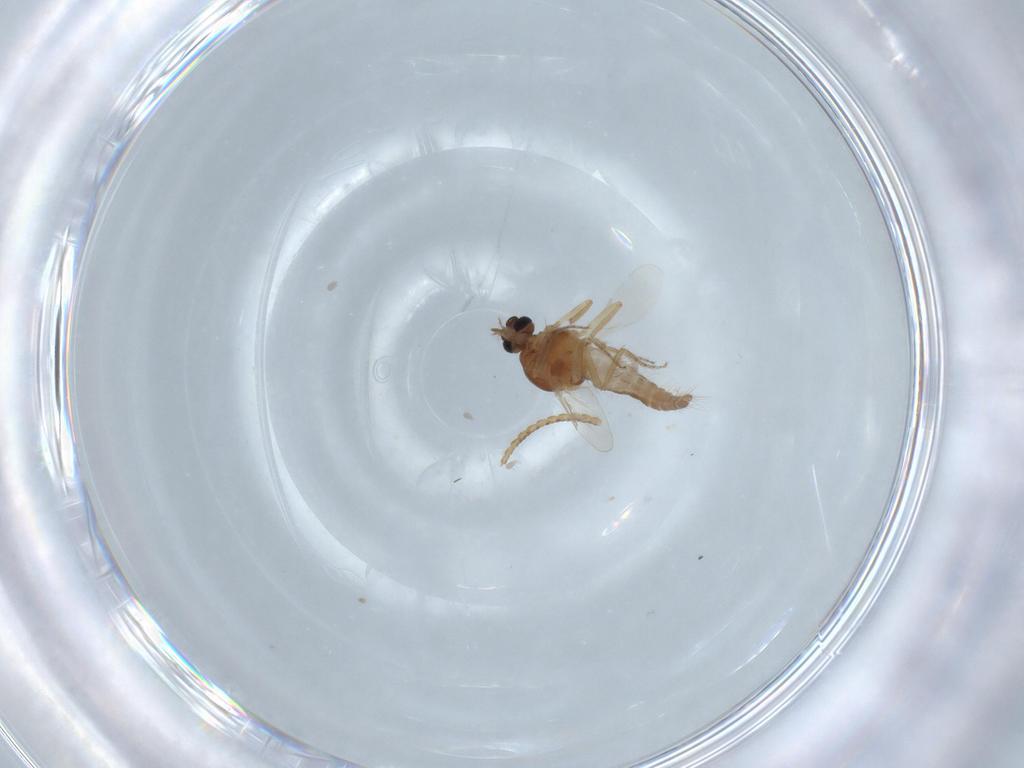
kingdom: Animalia
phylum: Arthropoda
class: Insecta
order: Diptera
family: Ceratopogonidae
